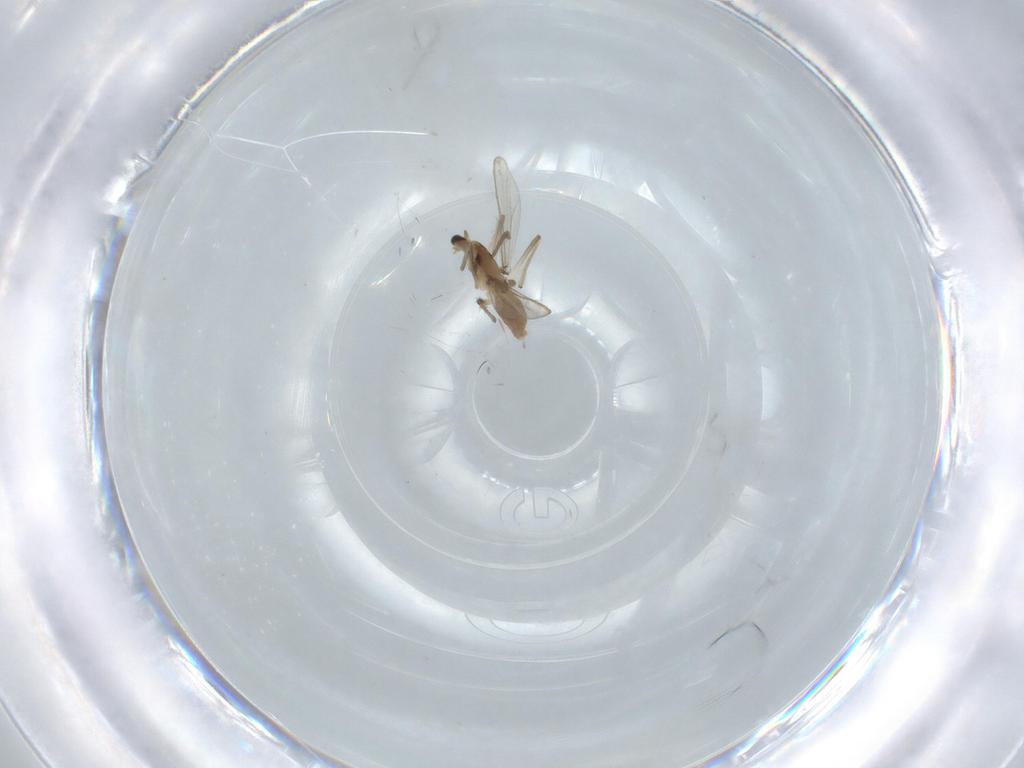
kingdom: Animalia
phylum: Arthropoda
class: Insecta
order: Diptera
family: Chironomidae
